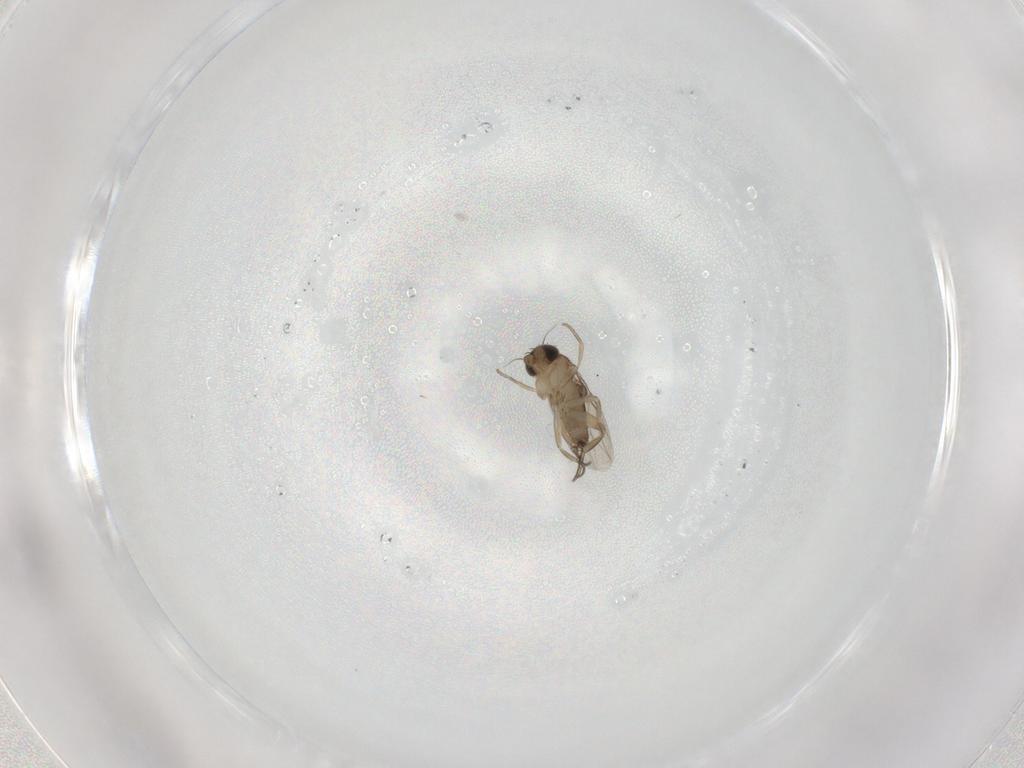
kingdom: Animalia
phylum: Arthropoda
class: Insecta
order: Diptera
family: Phoridae
